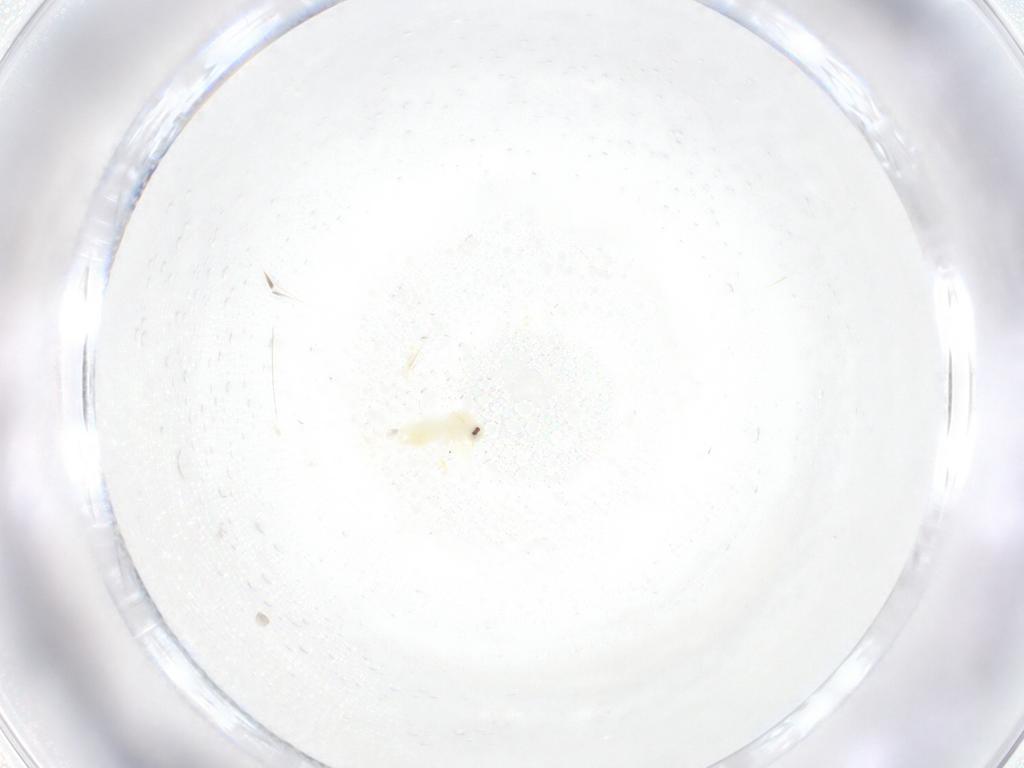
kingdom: Animalia
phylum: Arthropoda
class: Insecta
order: Hemiptera
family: Aphididae
